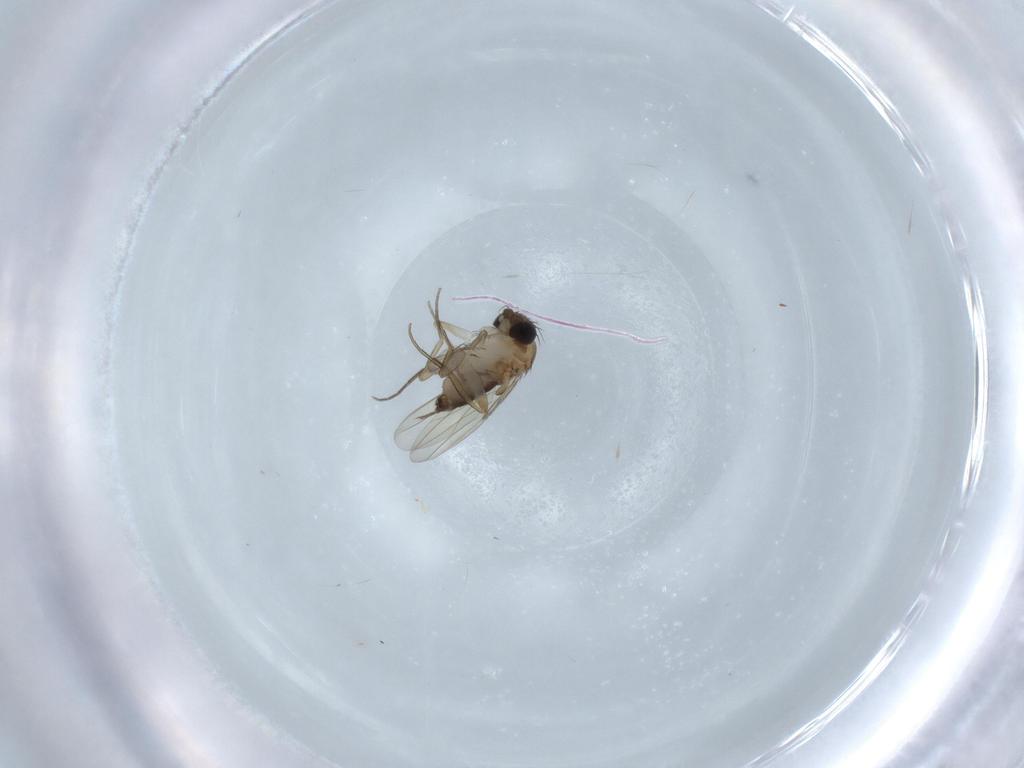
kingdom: Animalia
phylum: Arthropoda
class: Insecta
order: Diptera
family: Phoridae
